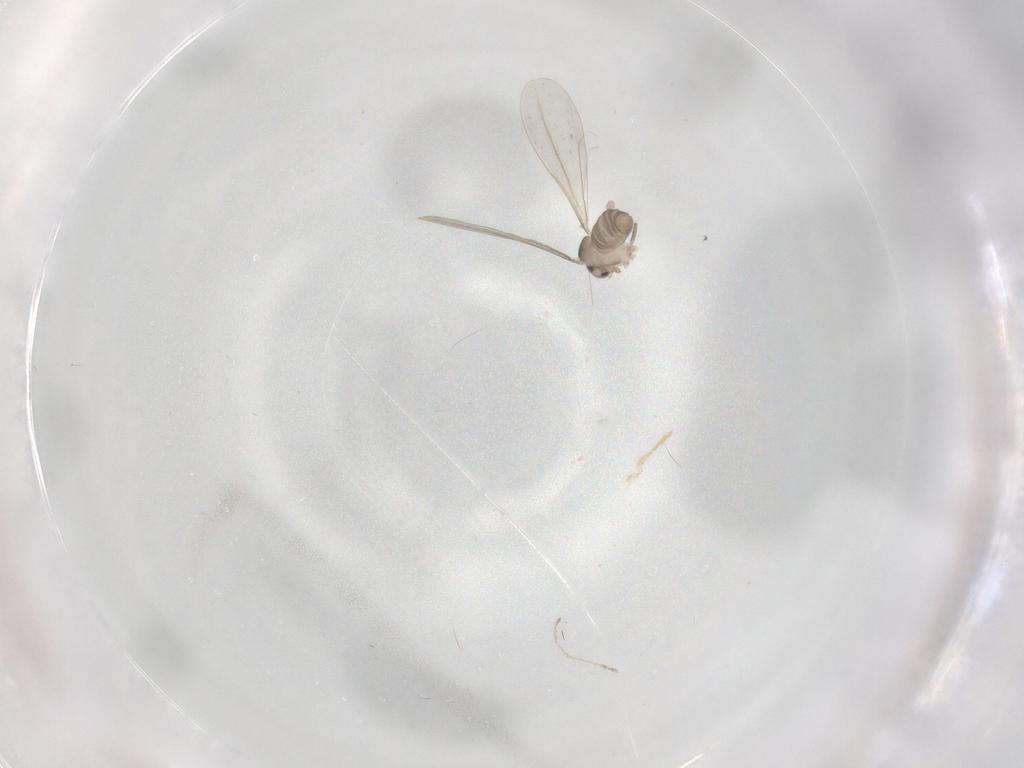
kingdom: Animalia
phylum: Arthropoda
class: Insecta
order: Diptera
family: Cecidomyiidae
